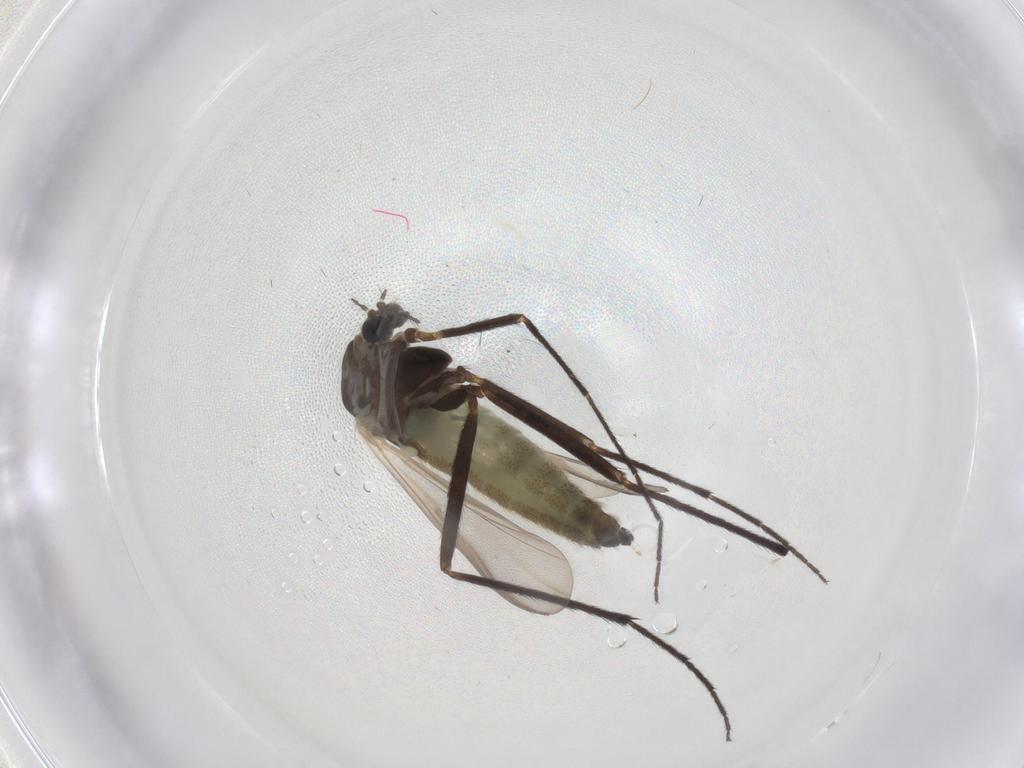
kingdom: Animalia
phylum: Arthropoda
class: Insecta
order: Diptera
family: Chironomidae
